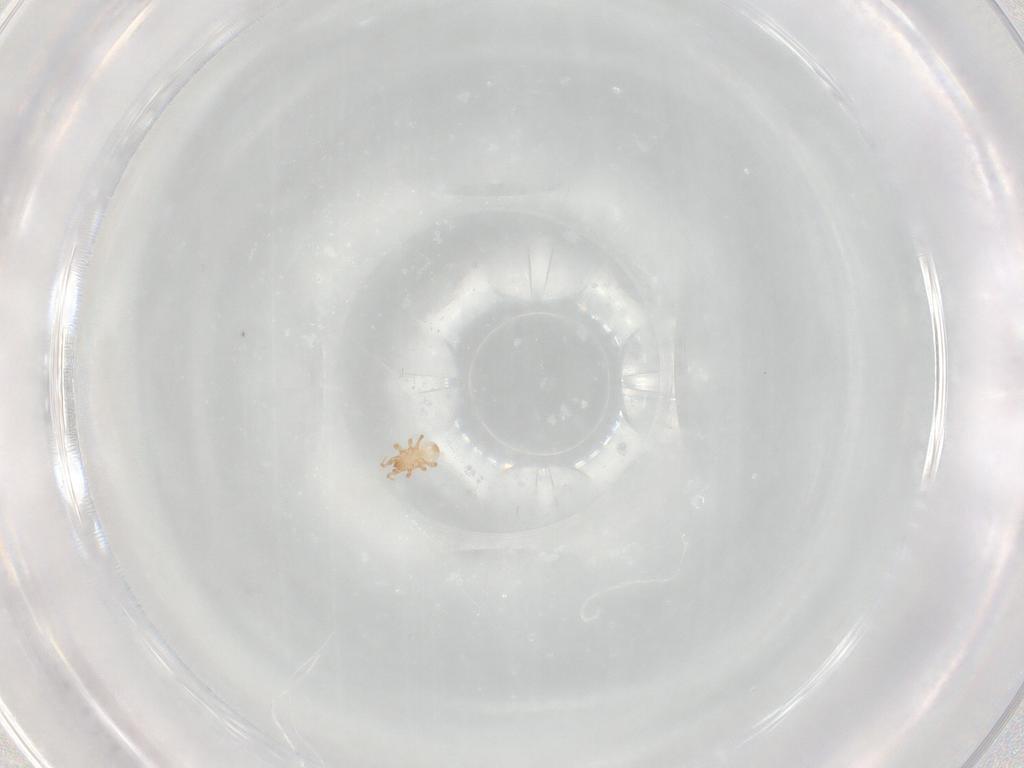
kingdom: Animalia
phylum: Arthropoda
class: Arachnida
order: Mesostigmata
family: Ascidae
